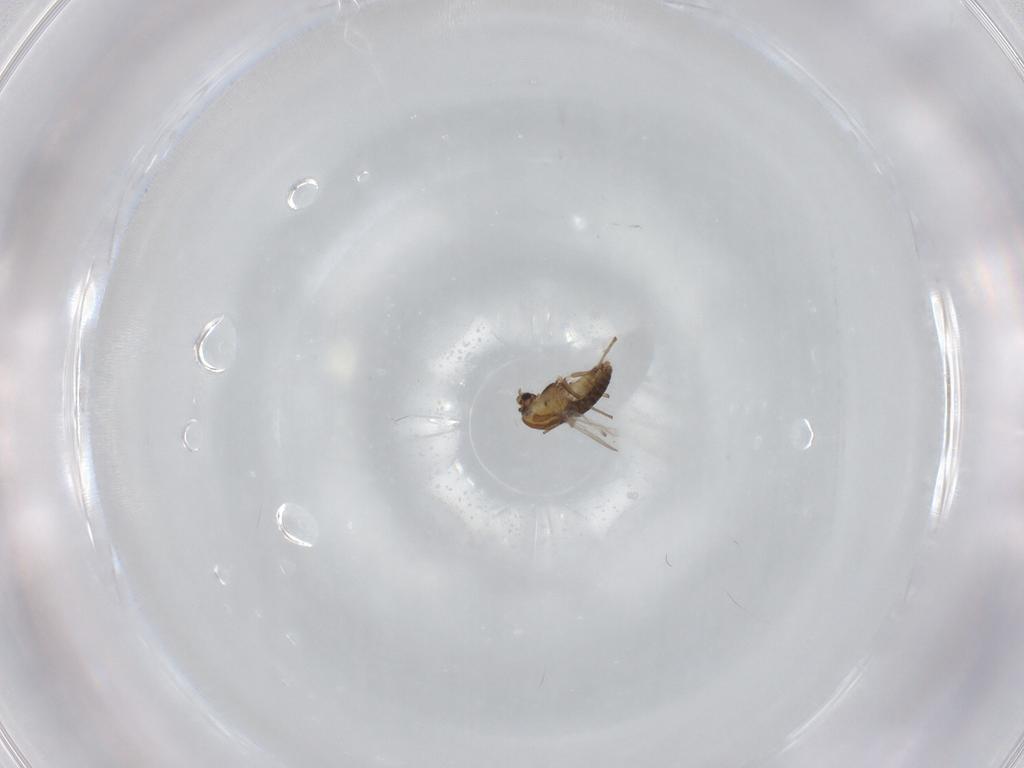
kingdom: Animalia
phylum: Arthropoda
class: Insecta
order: Diptera
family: Chironomidae
